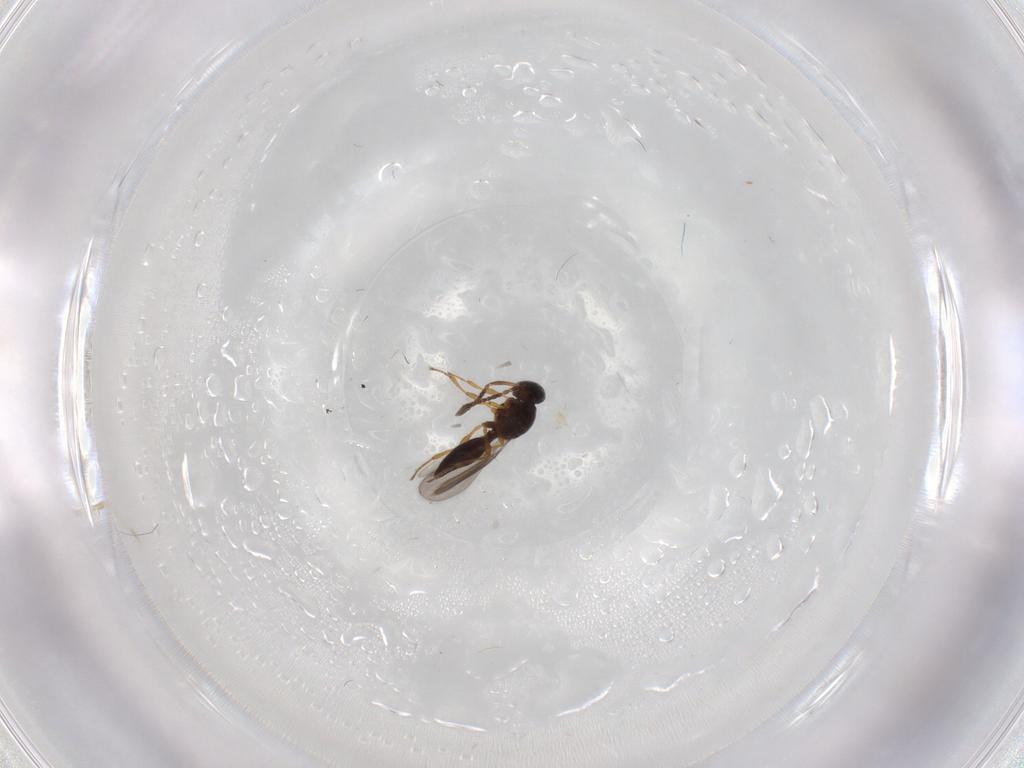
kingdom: Animalia
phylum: Arthropoda
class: Insecta
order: Hymenoptera
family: Platygastridae
